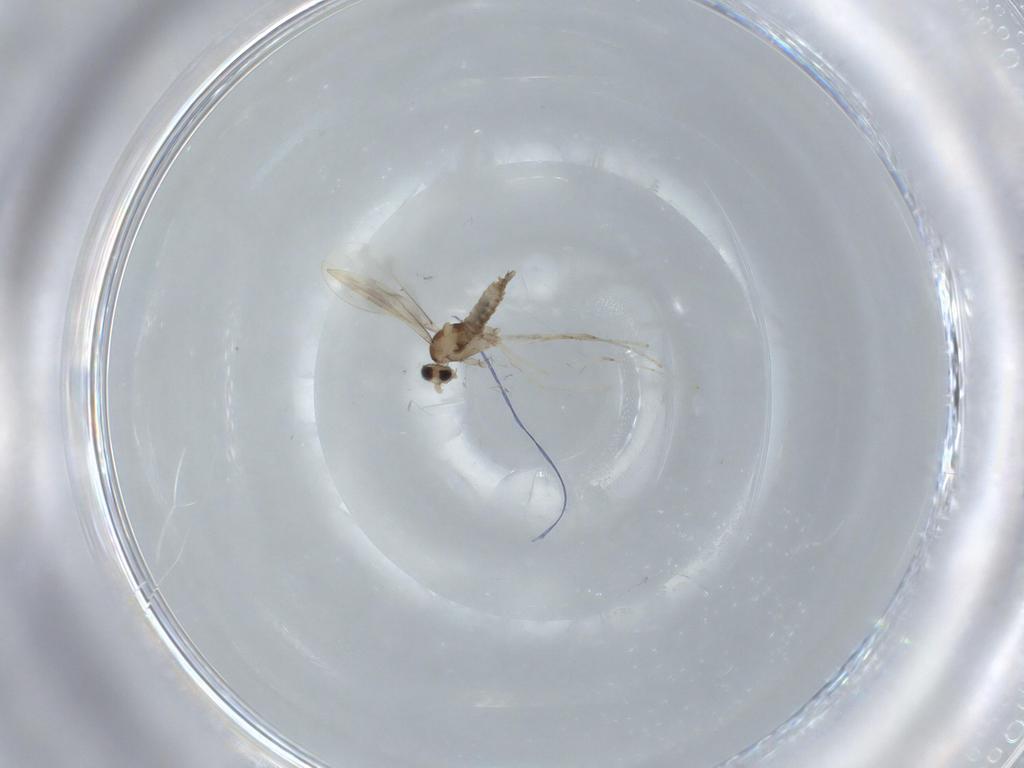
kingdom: Animalia
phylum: Arthropoda
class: Insecta
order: Diptera
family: Cecidomyiidae
